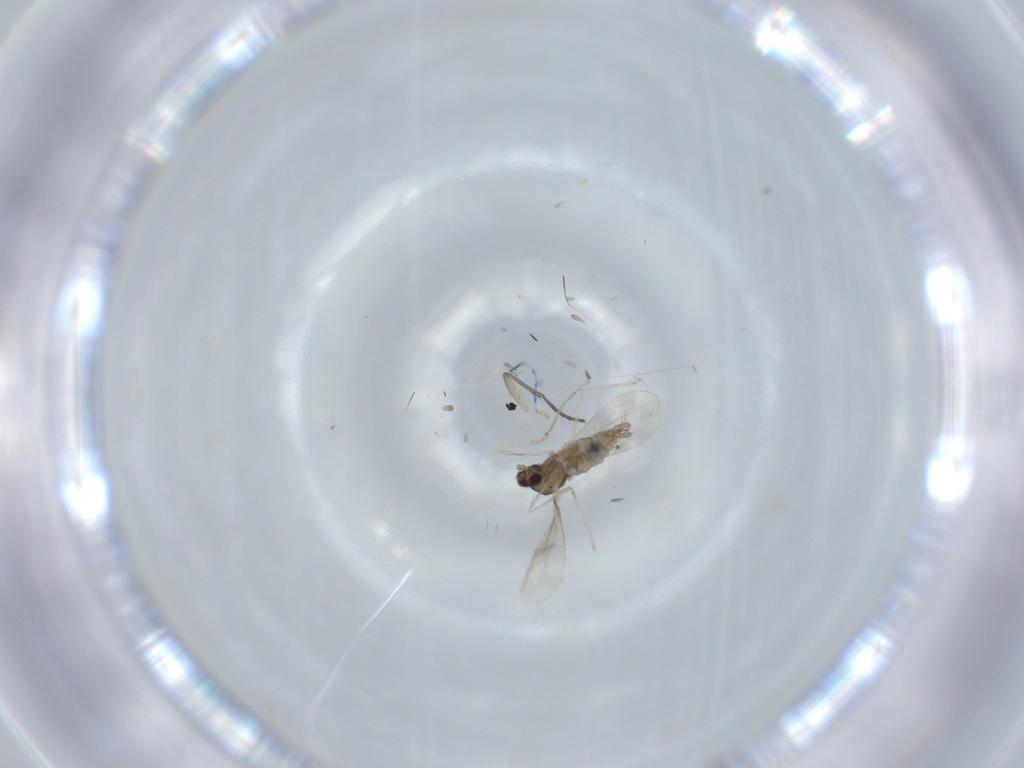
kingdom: Animalia
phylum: Arthropoda
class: Insecta
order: Diptera
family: Cecidomyiidae
